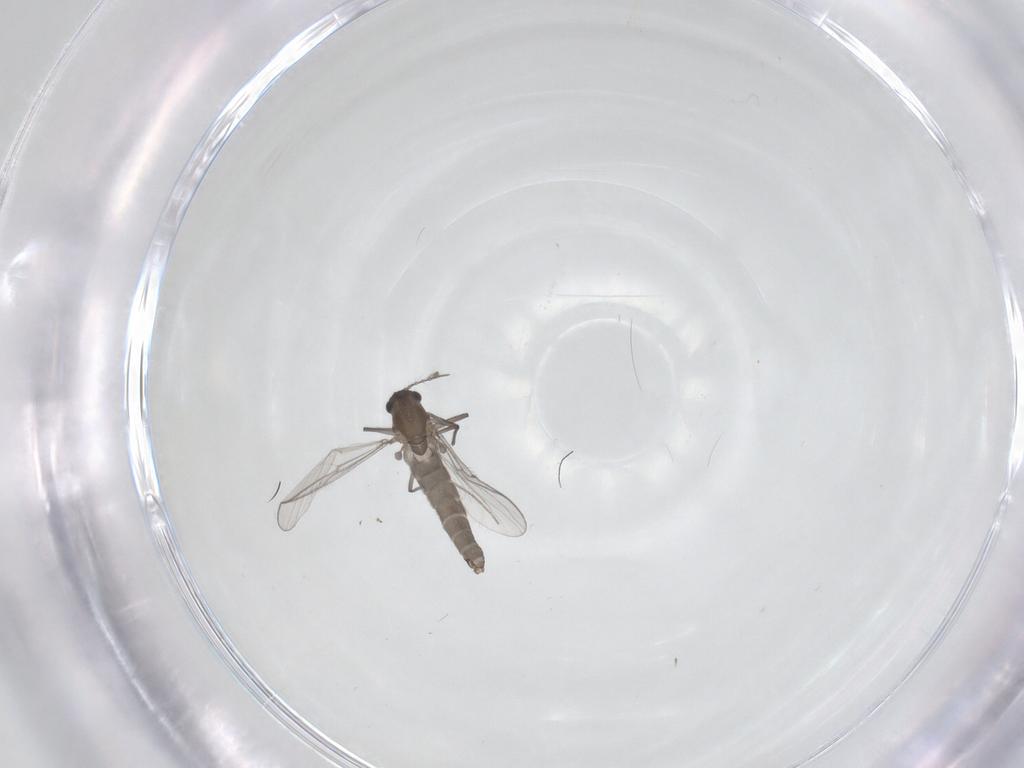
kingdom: Animalia
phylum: Arthropoda
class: Insecta
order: Diptera
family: Chironomidae
